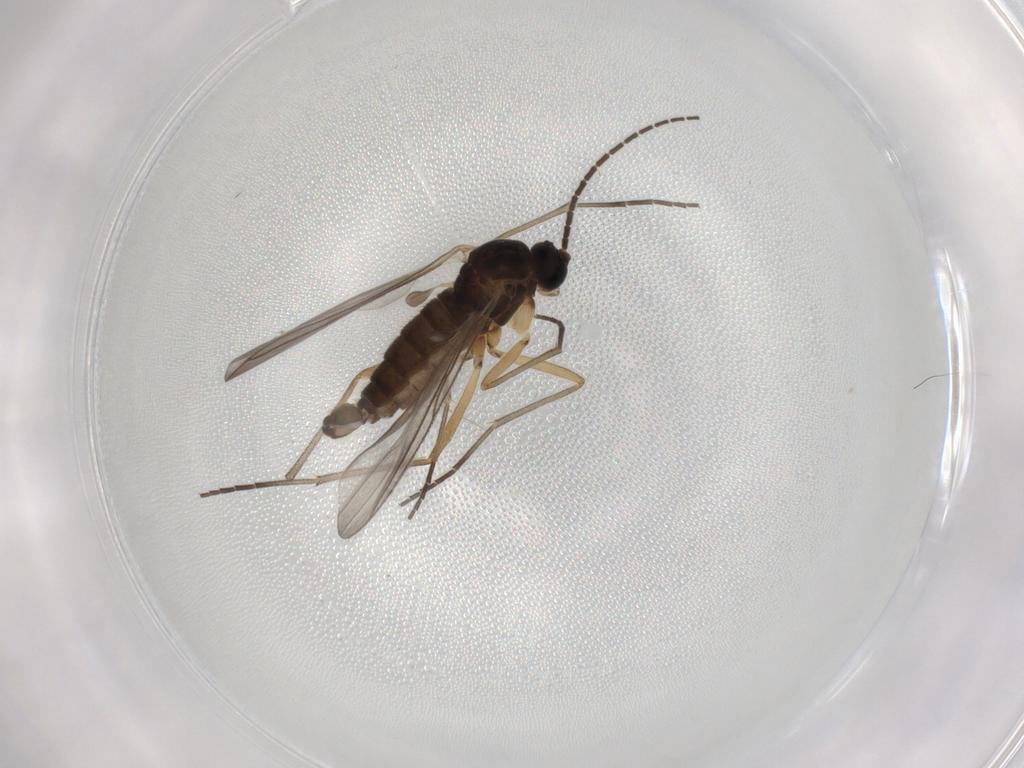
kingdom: Animalia
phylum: Arthropoda
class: Insecta
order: Diptera
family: Sciaridae
